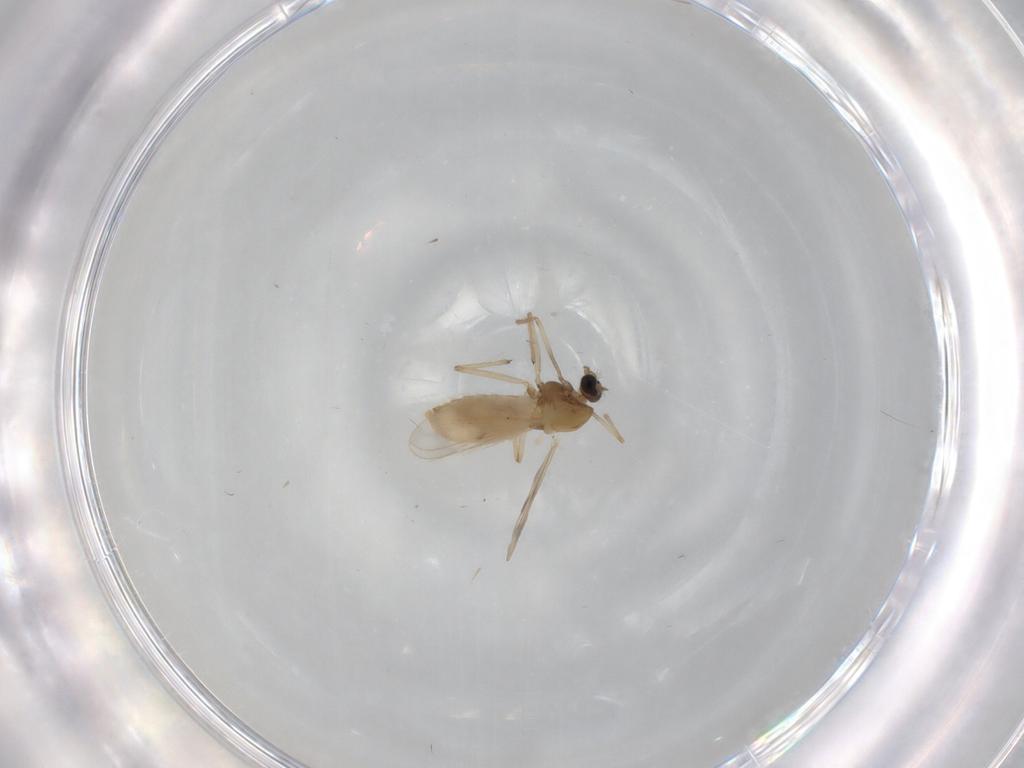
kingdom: Animalia
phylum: Arthropoda
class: Insecta
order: Diptera
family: Chironomidae
